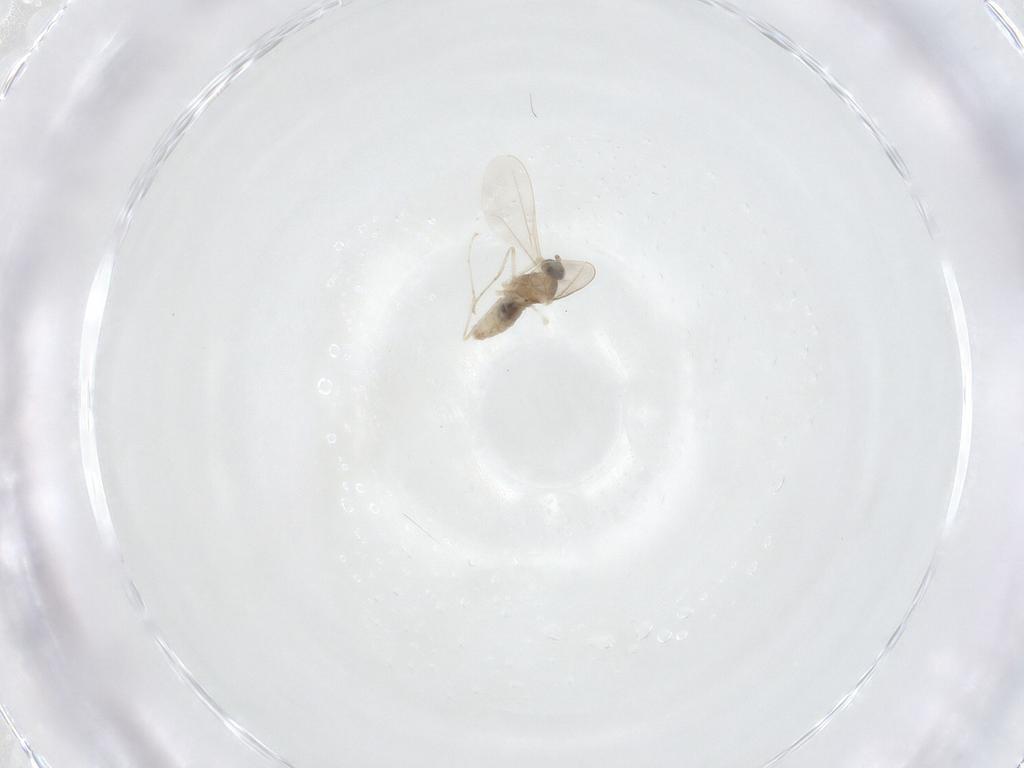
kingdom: Animalia
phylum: Arthropoda
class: Insecta
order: Diptera
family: Cecidomyiidae
